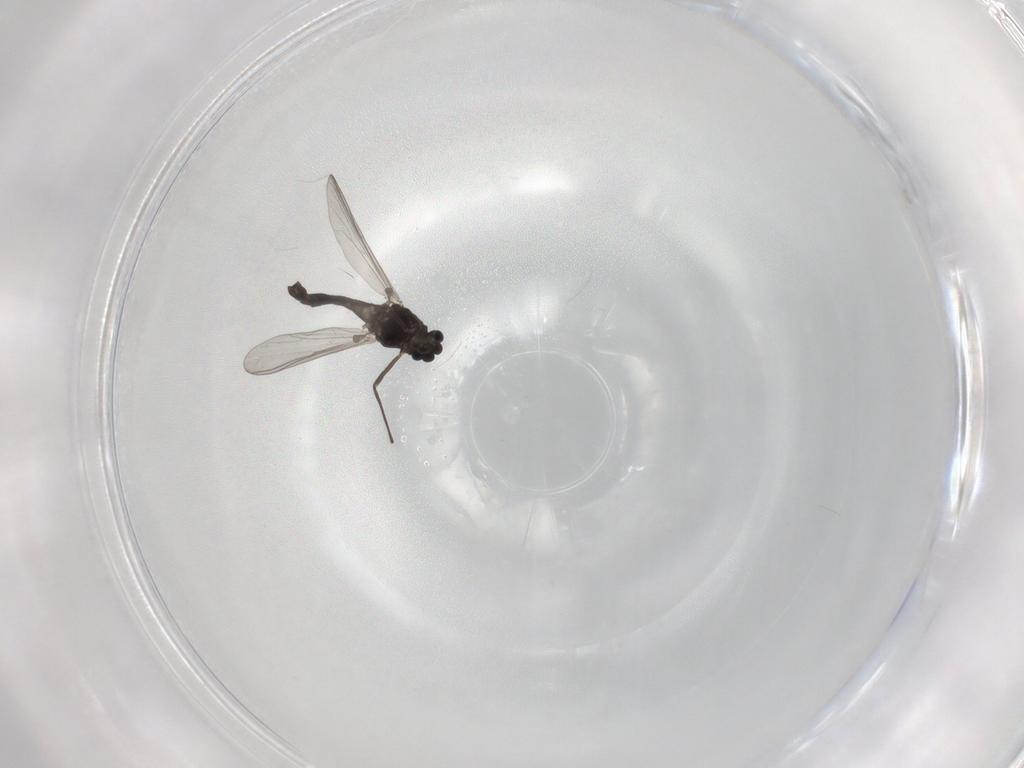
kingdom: Animalia
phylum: Arthropoda
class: Insecta
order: Diptera
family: Chironomidae
